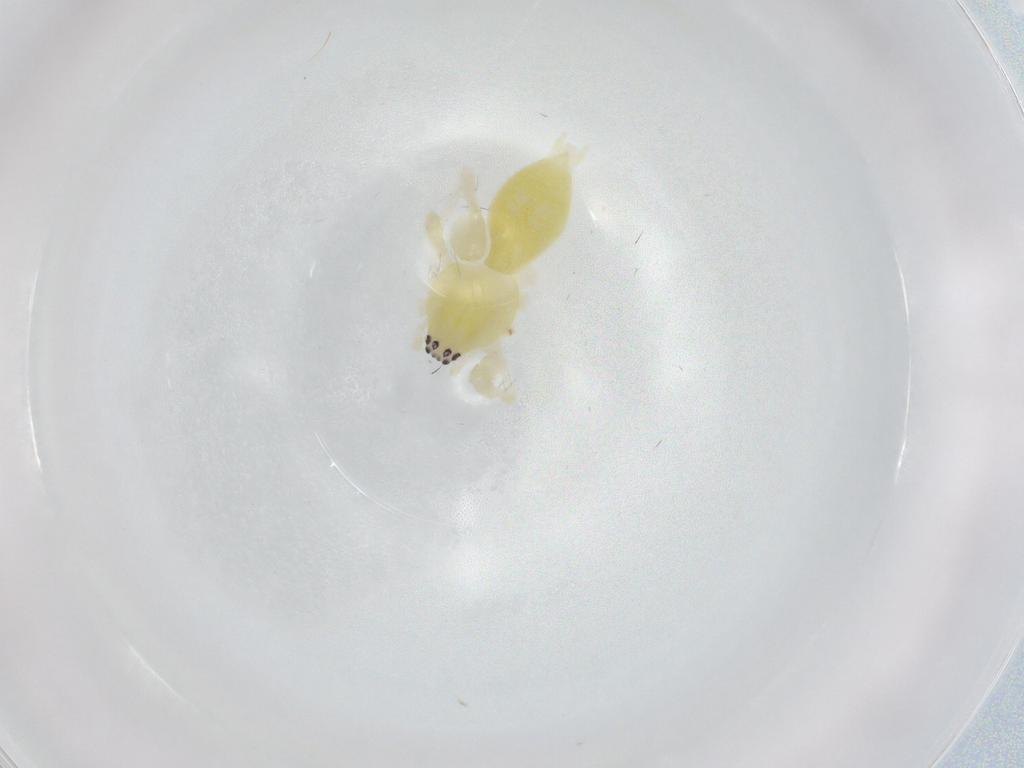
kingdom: Animalia
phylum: Arthropoda
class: Arachnida
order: Araneae
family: Anyphaenidae
